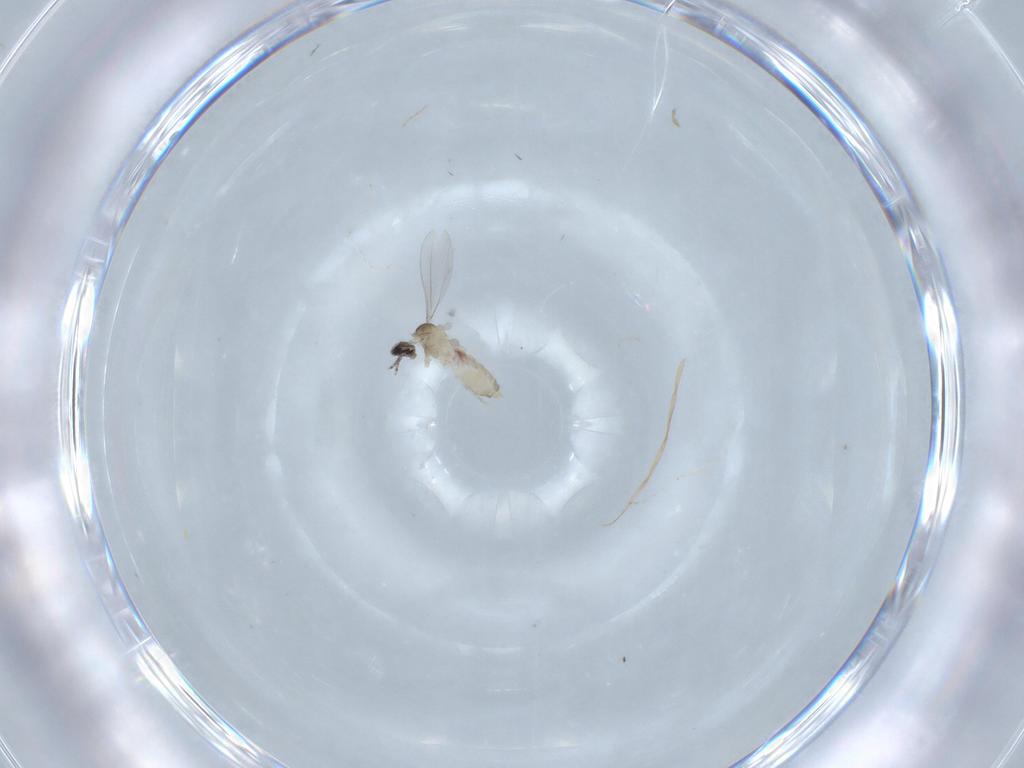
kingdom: Animalia
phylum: Arthropoda
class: Insecta
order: Diptera
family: Cecidomyiidae
